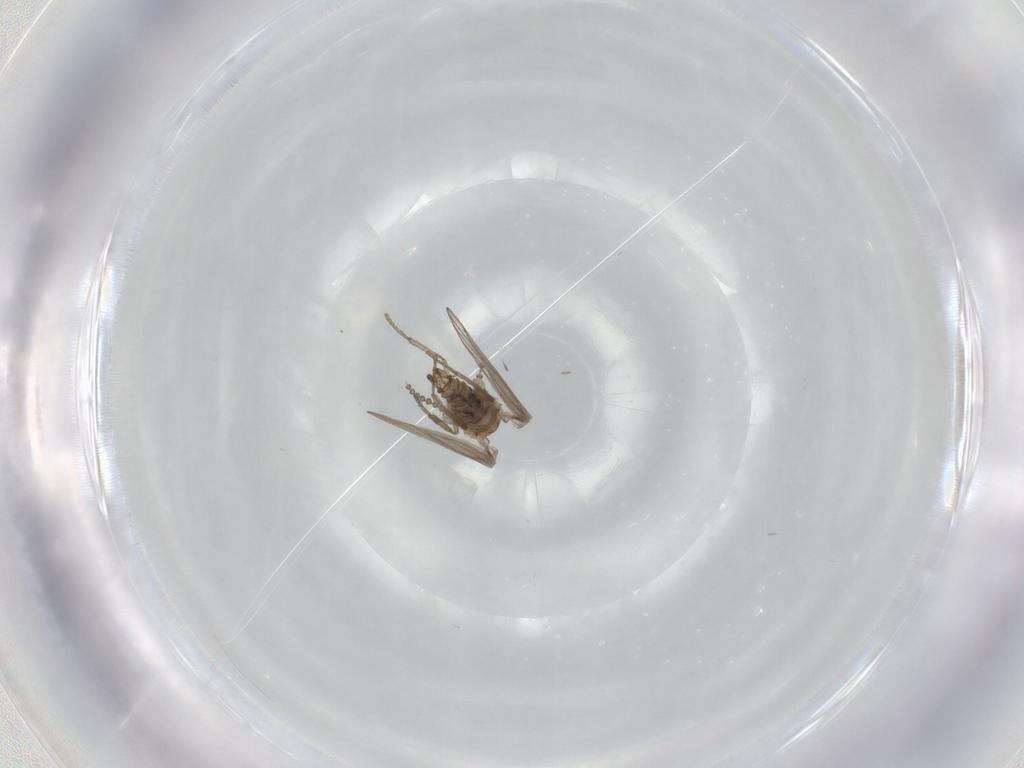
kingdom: Animalia
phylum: Arthropoda
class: Insecta
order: Diptera
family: Psychodidae
